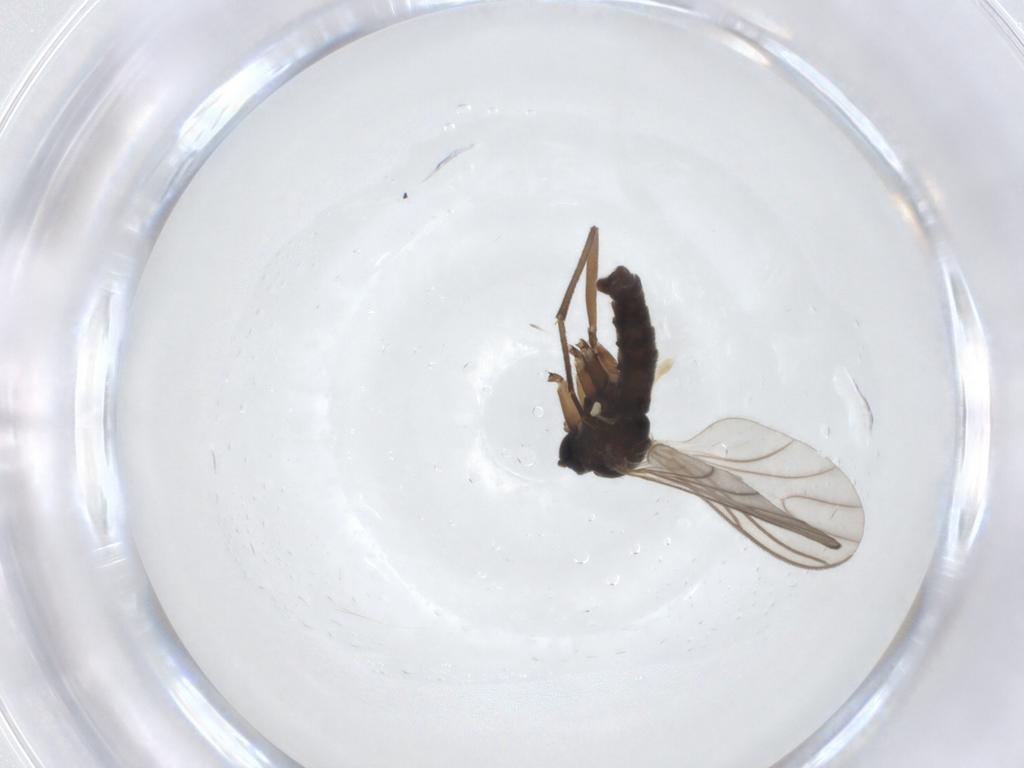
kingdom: Animalia
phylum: Arthropoda
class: Insecta
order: Diptera
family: Sciaridae
